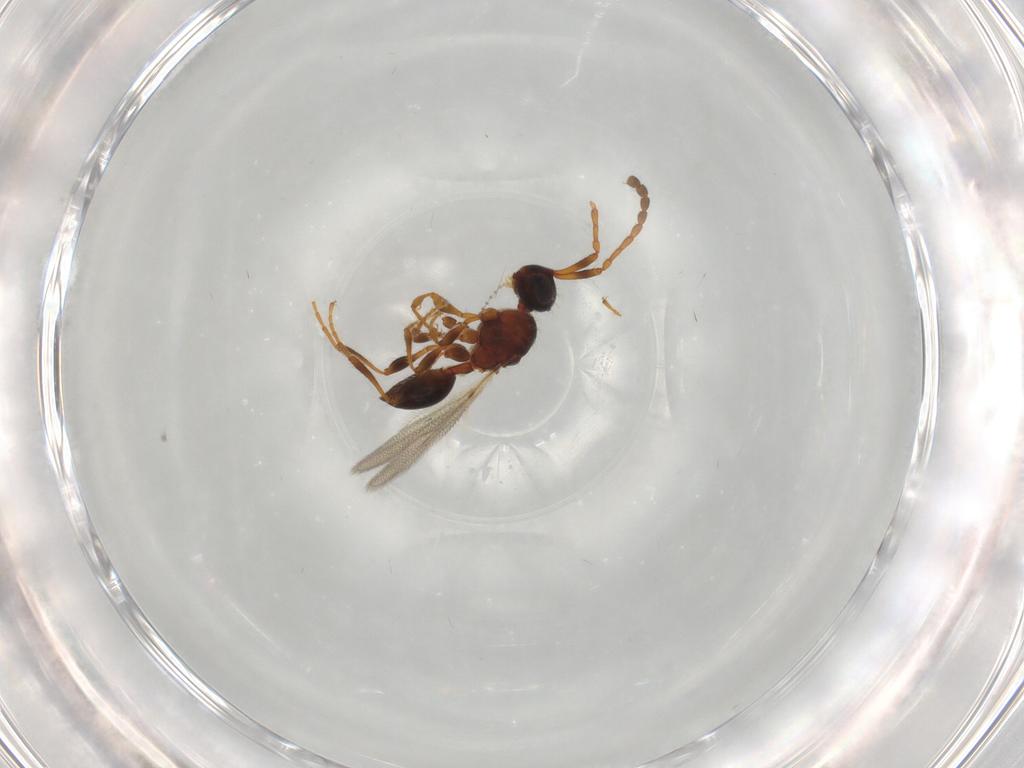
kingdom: Animalia
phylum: Arthropoda
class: Insecta
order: Hymenoptera
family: Diapriidae
